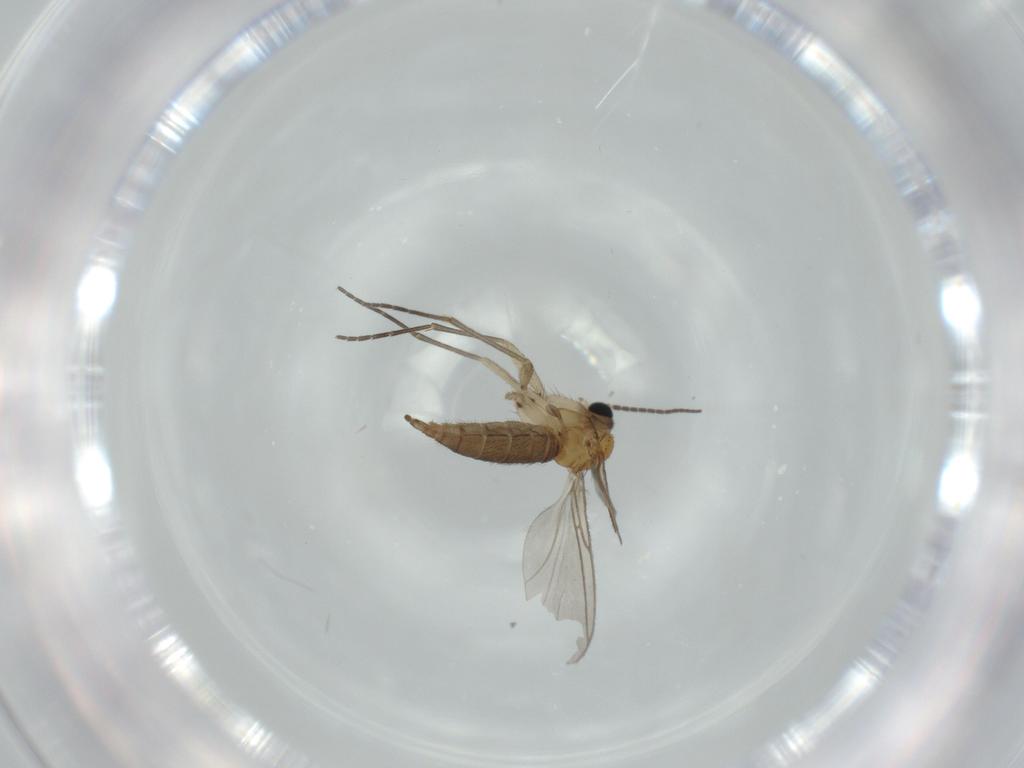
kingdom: Animalia
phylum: Arthropoda
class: Insecta
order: Diptera
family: Sciaridae
